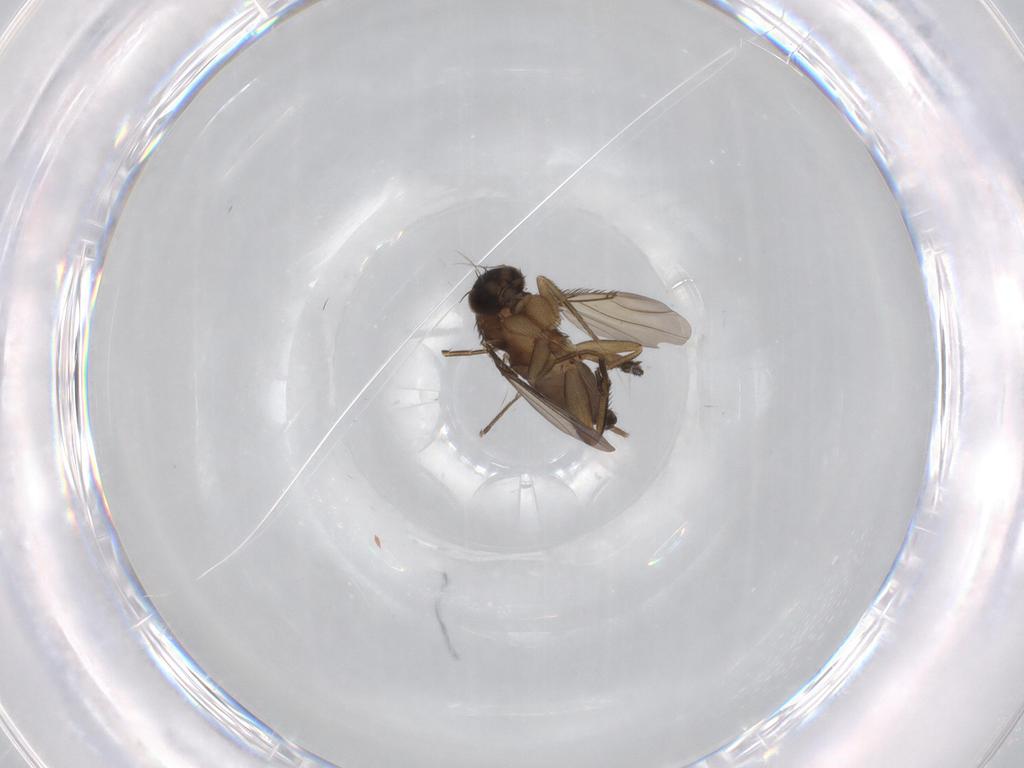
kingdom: Animalia
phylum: Arthropoda
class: Insecta
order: Diptera
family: Phoridae
